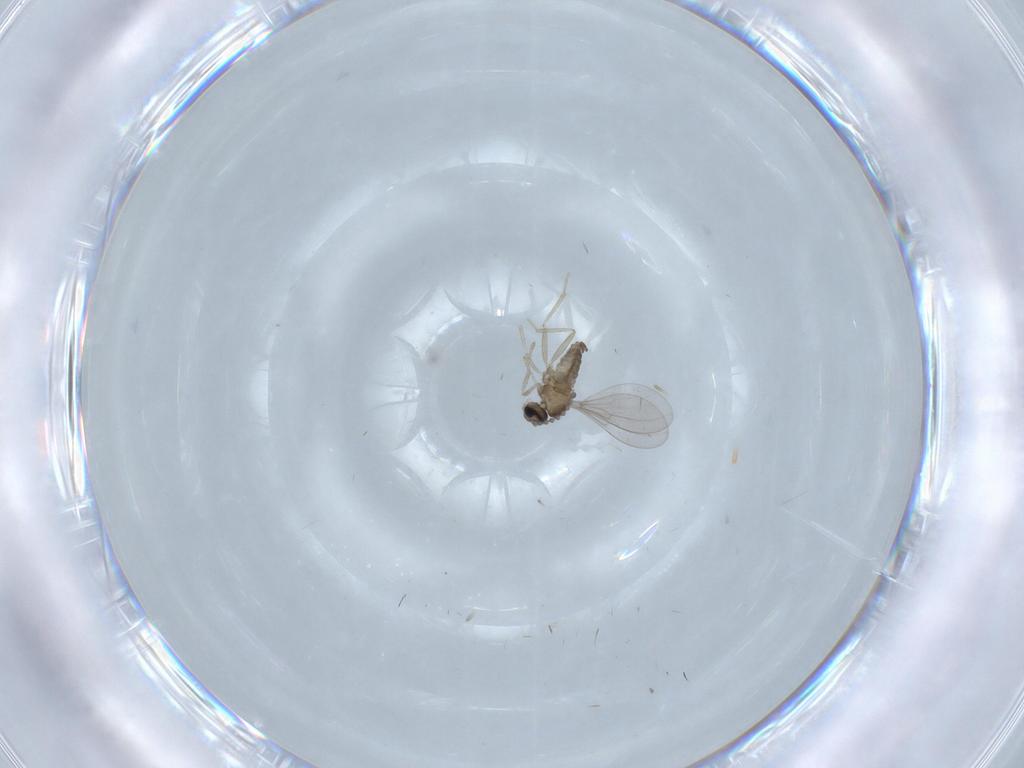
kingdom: Animalia
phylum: Arthropoda
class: Insecta
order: Diptera
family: Cecidomyiidae
